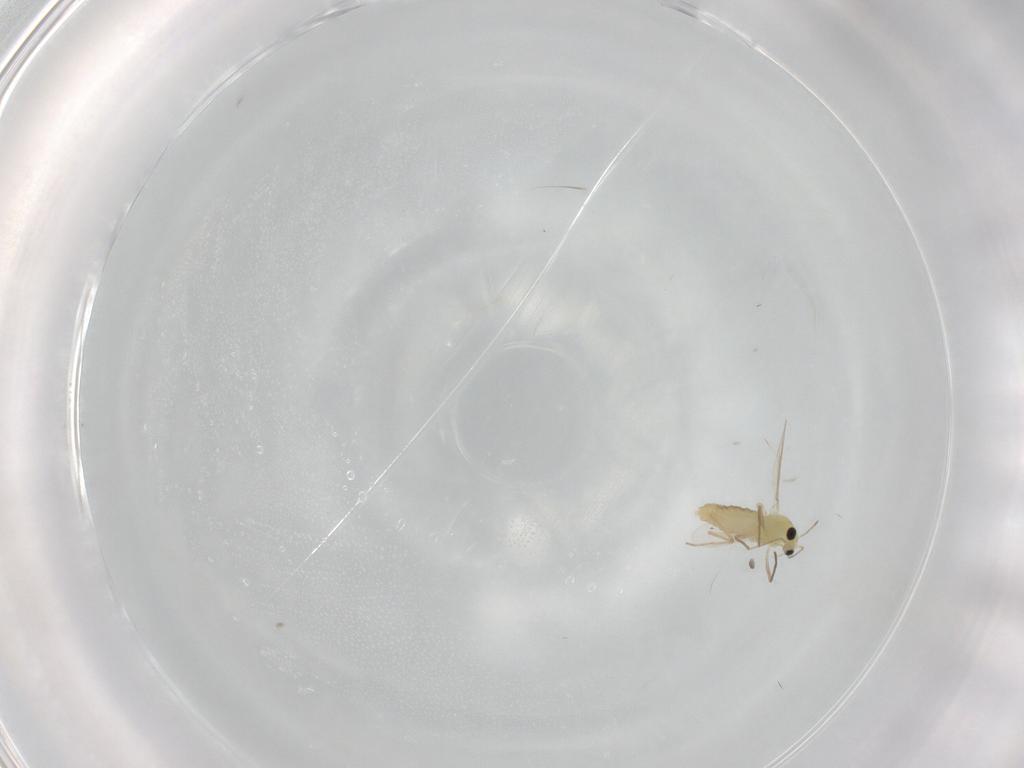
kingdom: Animalia
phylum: Arthropoda
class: Insecta
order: Diptera
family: Chironomidae
